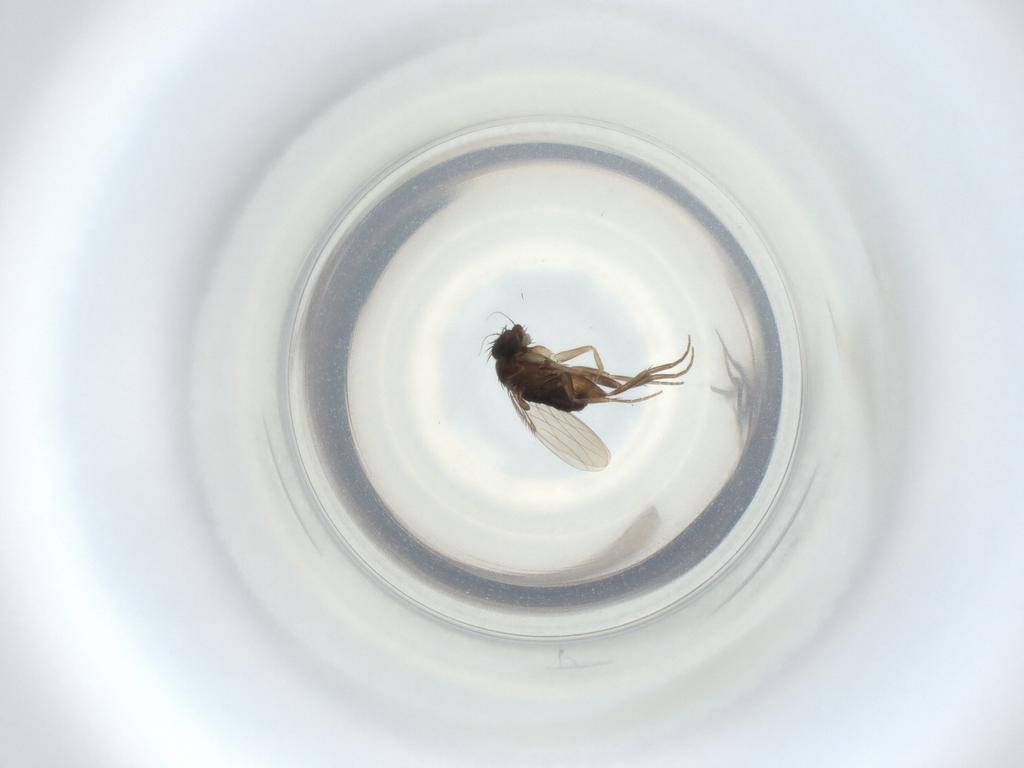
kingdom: Animalia
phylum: Arthropoda
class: Insecta
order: Diptera
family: Phoridae
